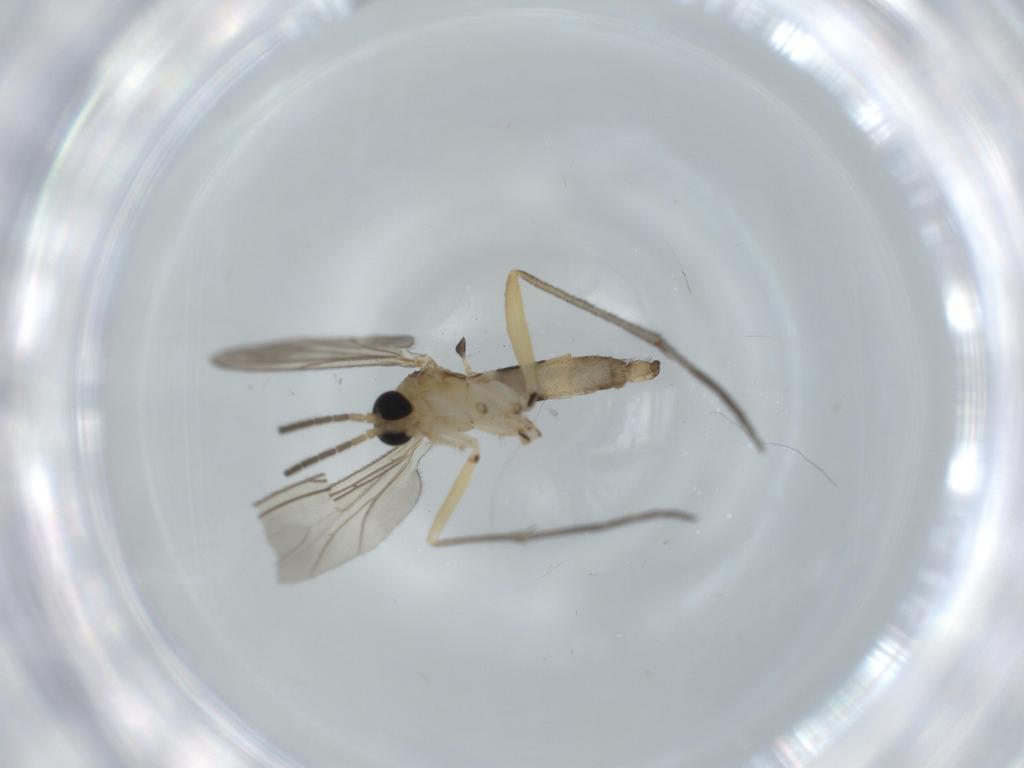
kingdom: Animalia
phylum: Arthropoda
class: Insecta
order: Diptera
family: Sciaridae
